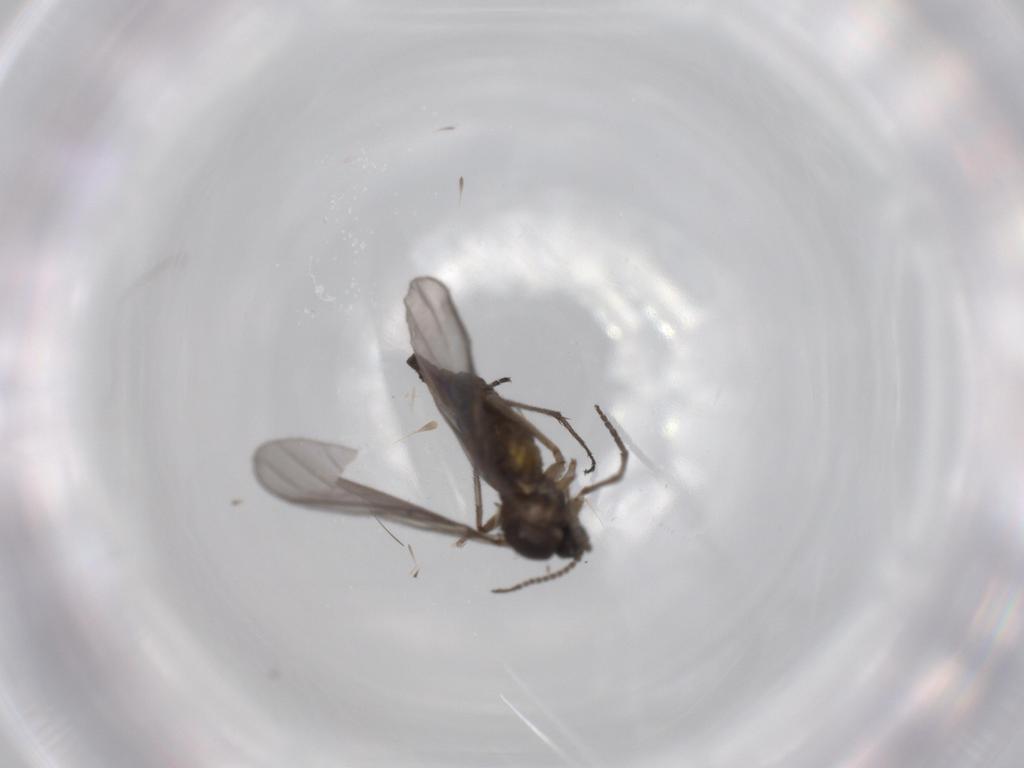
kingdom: Animalia
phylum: Arthropoda
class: Insecta
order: Diptera
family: Sciaridae
